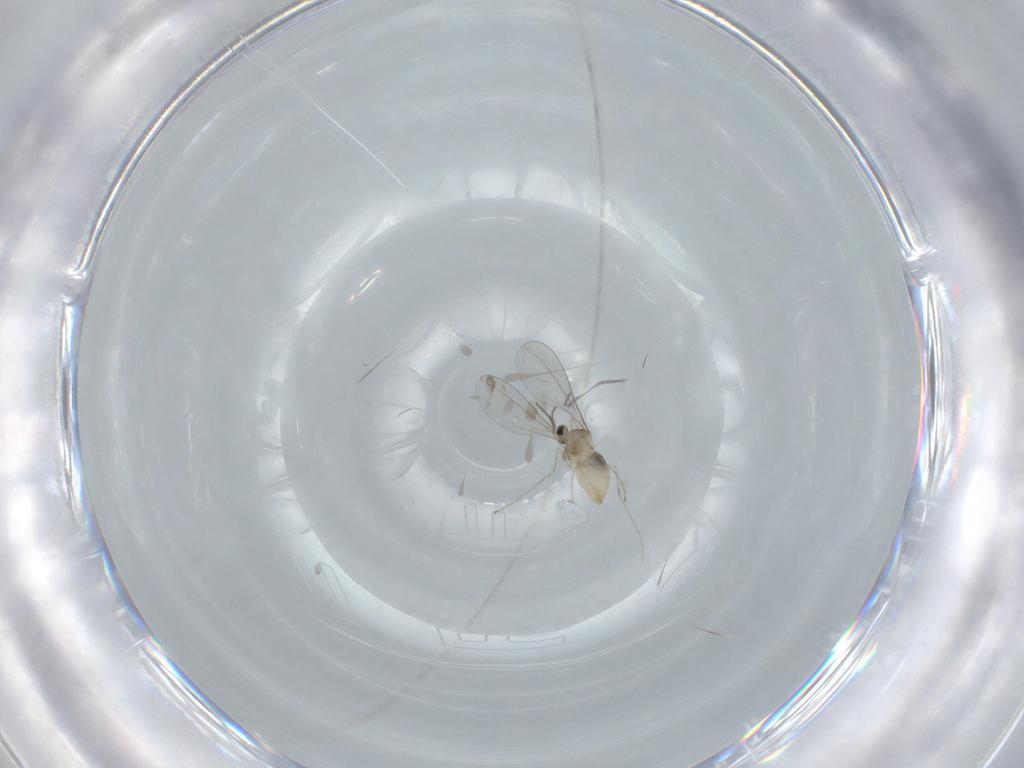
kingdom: Animalia
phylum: Arthropoda
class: Insecta
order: Diptera
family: Cecidomyiidae
